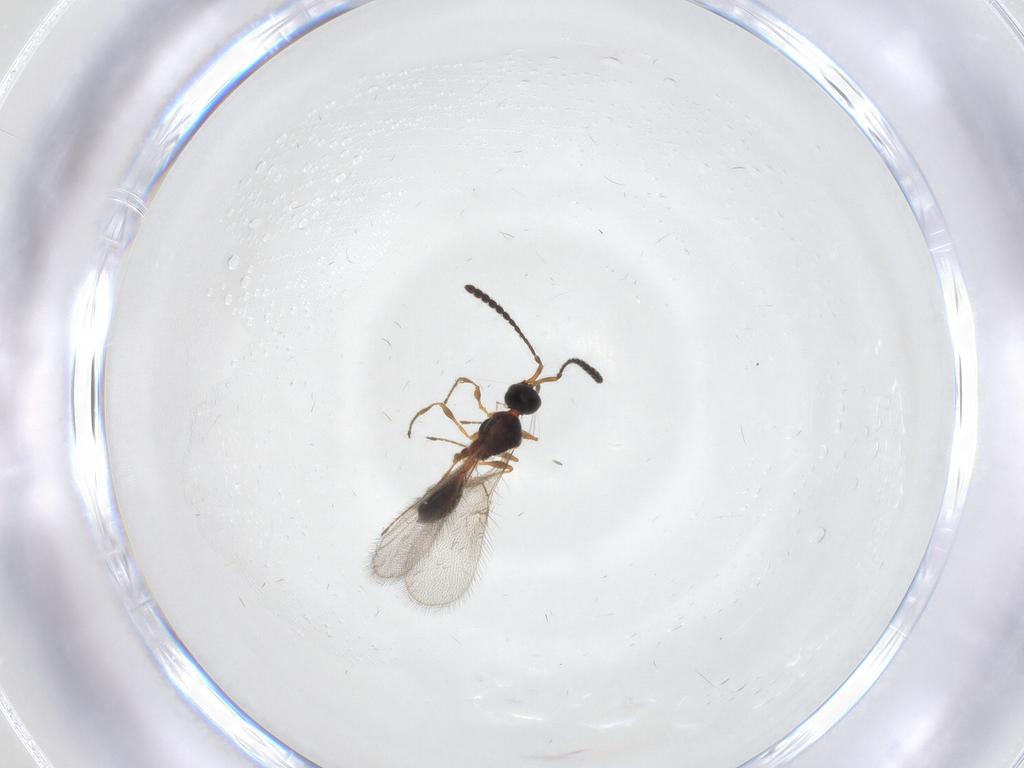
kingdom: Animalia
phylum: Arthropoda
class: Insecta
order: Hymenoptera
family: Diapriidae
